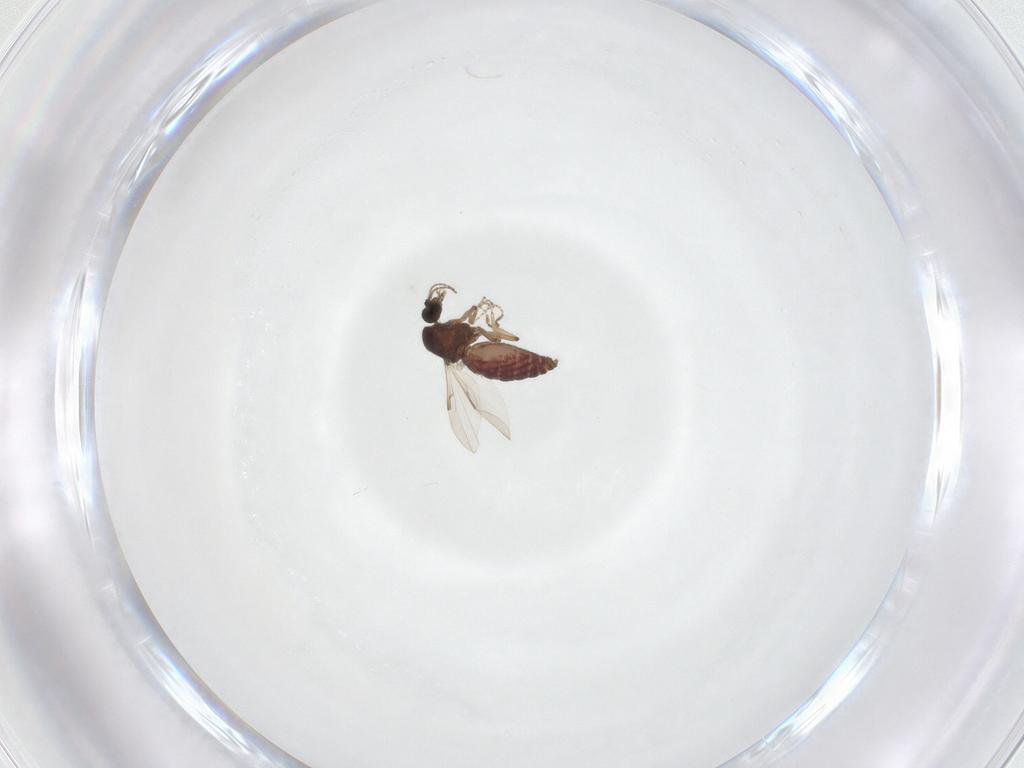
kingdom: Animalia
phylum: Arthropoda
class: Insecta
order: Diptera
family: Ceratopogonidae
